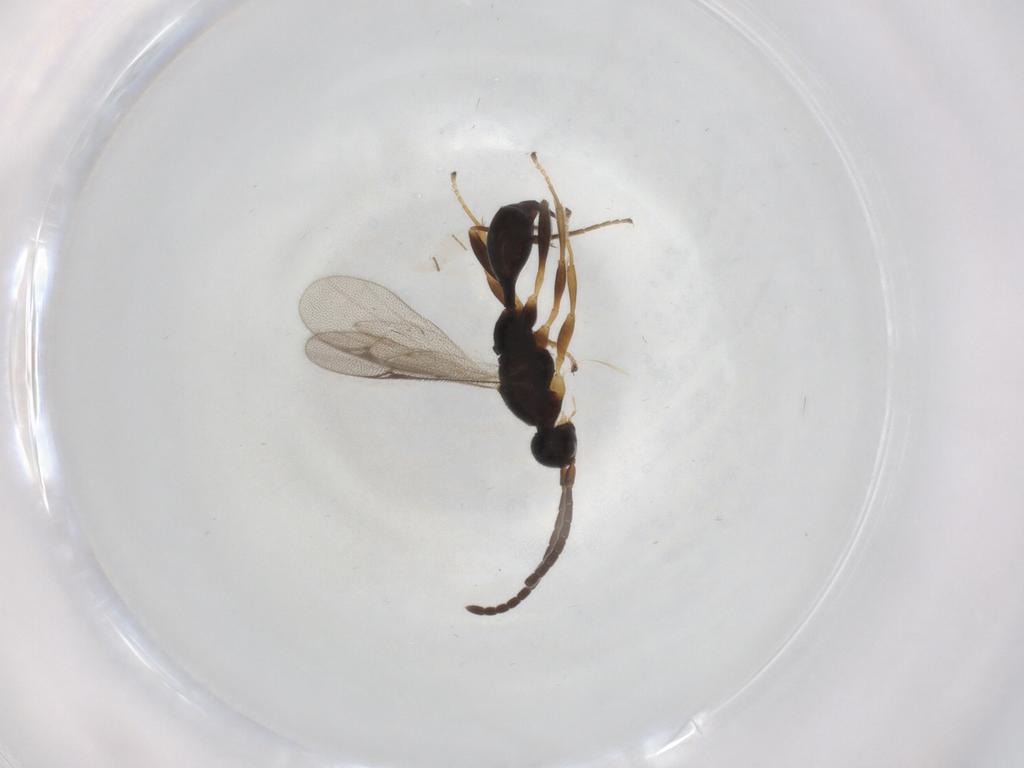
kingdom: Animalia
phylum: Arthropoda
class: Insecta
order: Hymenoptera
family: Proctotrupidae
